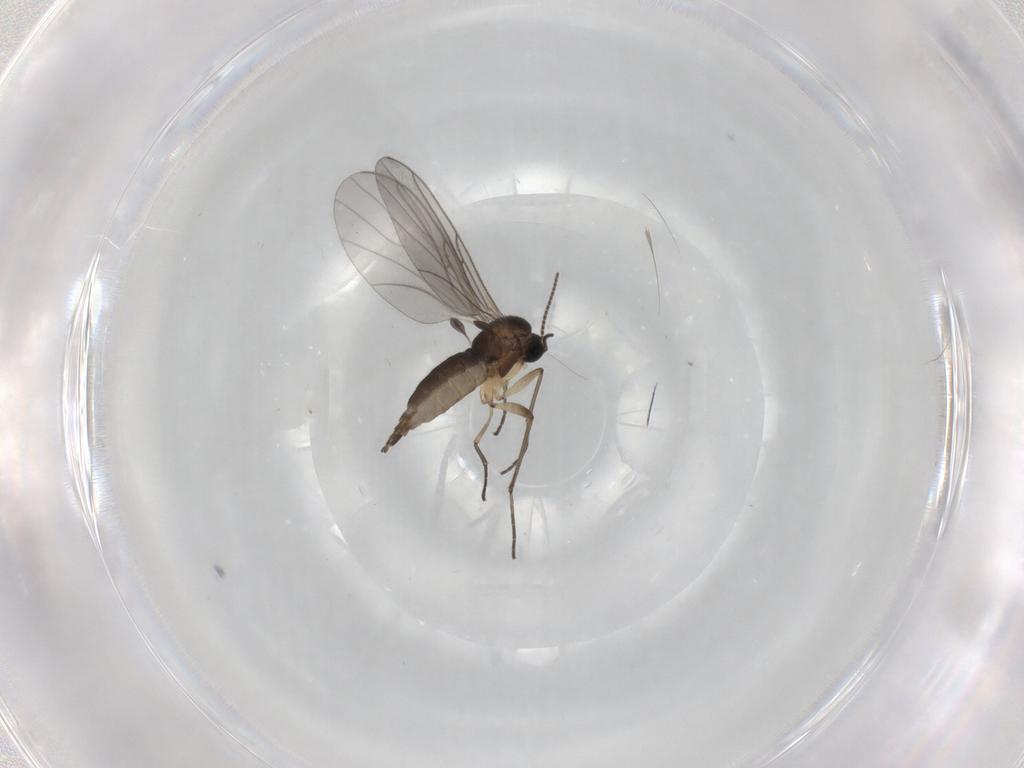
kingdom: Animalia
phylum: Arthropoda
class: Insecta
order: Diptera
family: Sciaridae
